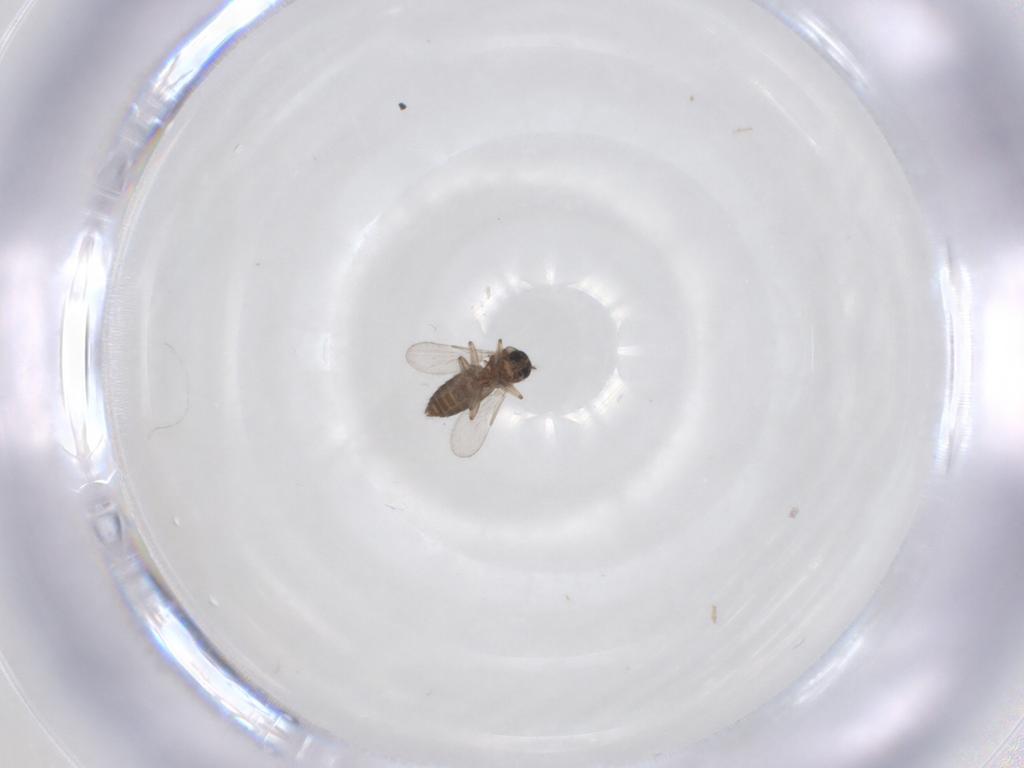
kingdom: Animalia
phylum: Arthropoda
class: Insecta
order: Diptera
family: Ceratopogonidae
